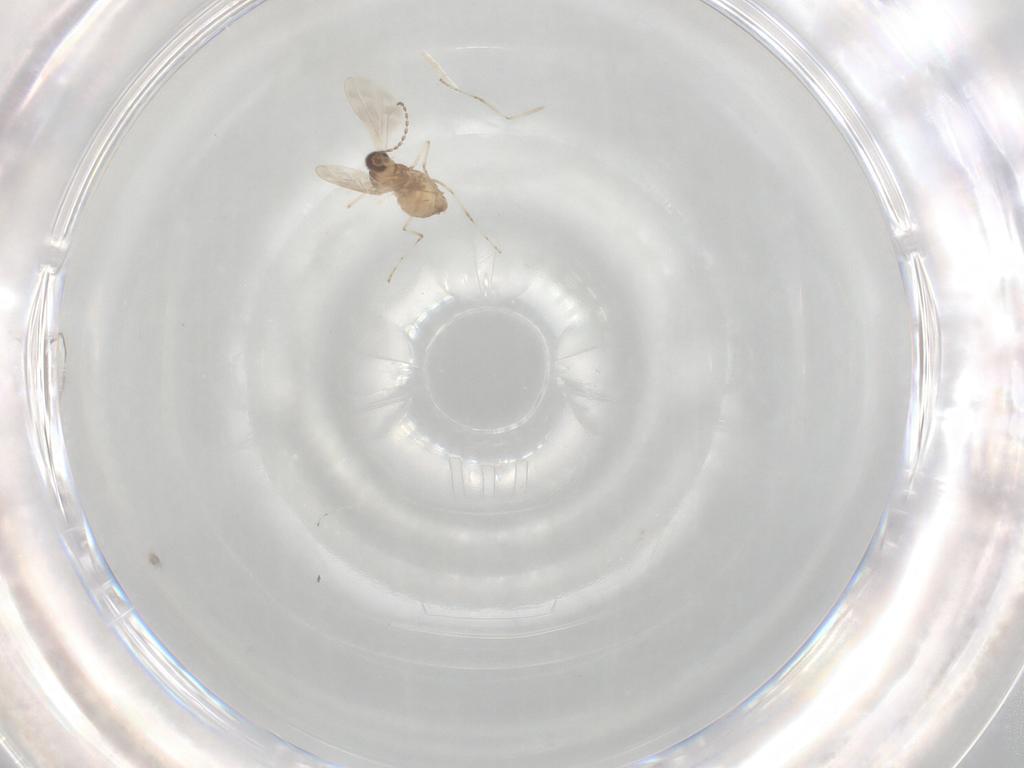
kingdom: Animalia
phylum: Arthropoda
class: Insecta
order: Diptera
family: Cecidomyiidae
